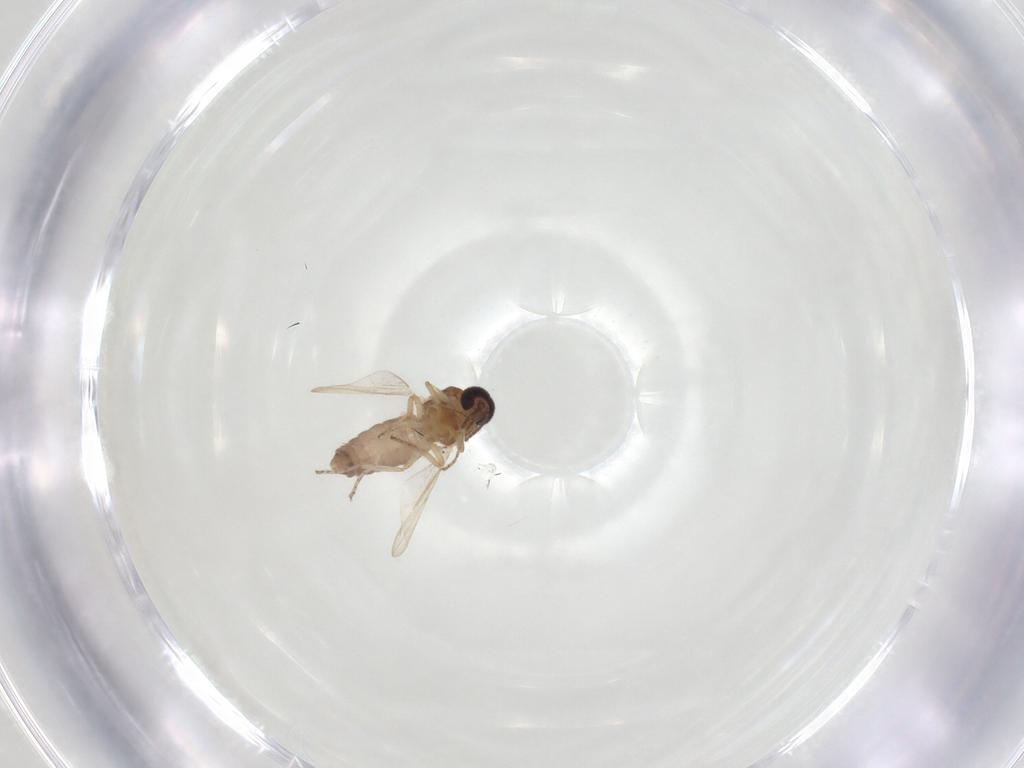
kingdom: Animalia
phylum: Arthropoda
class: Insecta
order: Diptera
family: Ceratopogonidae
